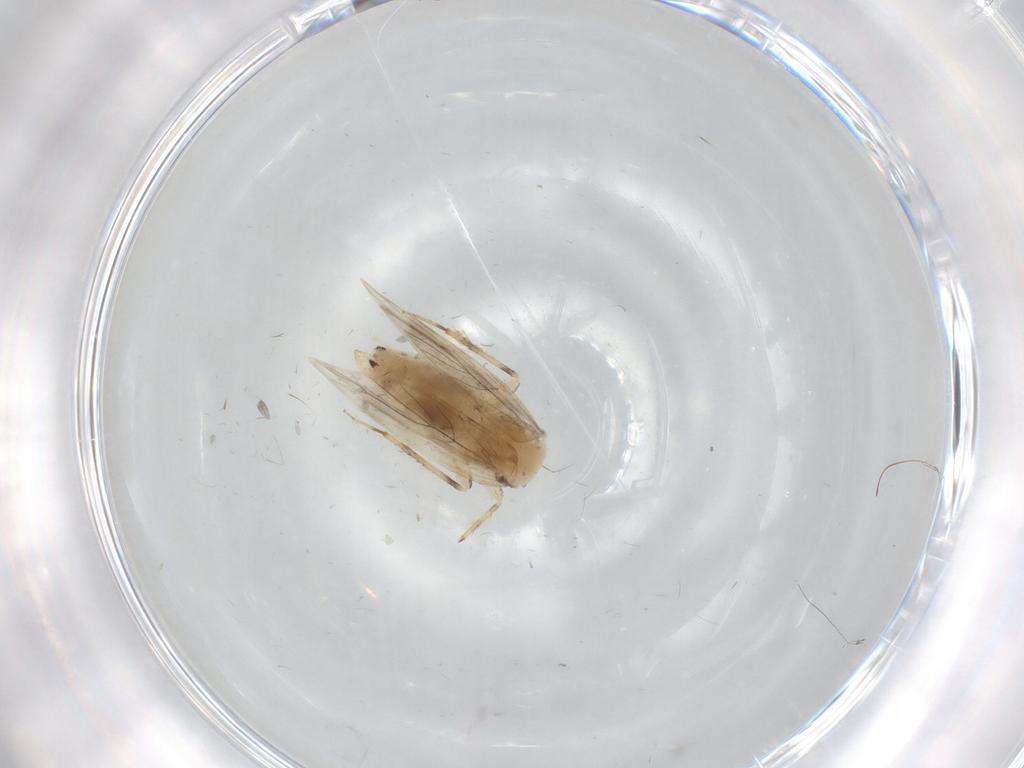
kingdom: Animalia
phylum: Arthropoda
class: Insecta
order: Psocodea
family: Lepidopsocidae
